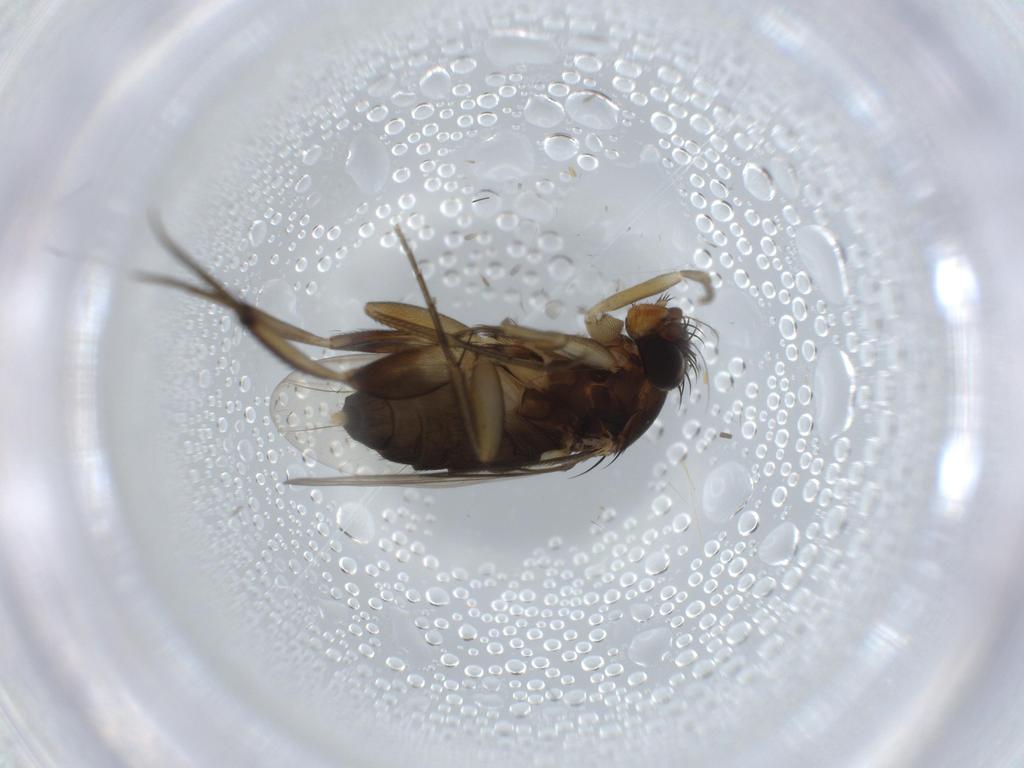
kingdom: Animalia
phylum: Arthropoda
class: Insecta
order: Diptera
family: Phoridae
